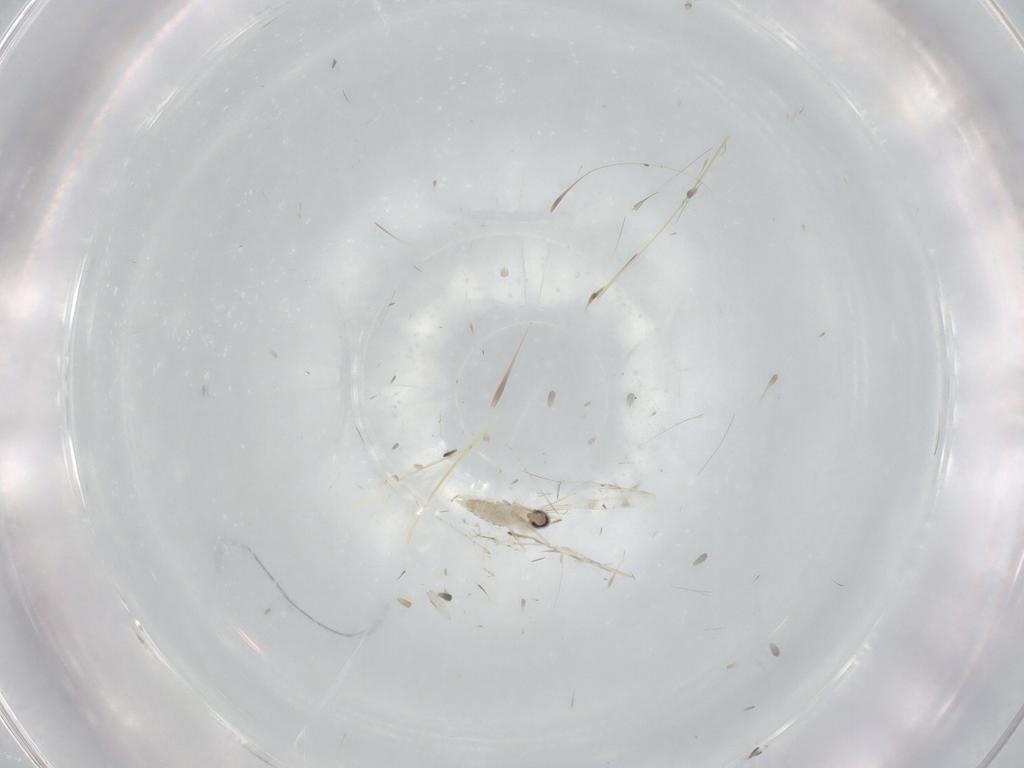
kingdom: Animalia
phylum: Arthropoda
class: Insecta
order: Diptera
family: Cecidomyiidae
